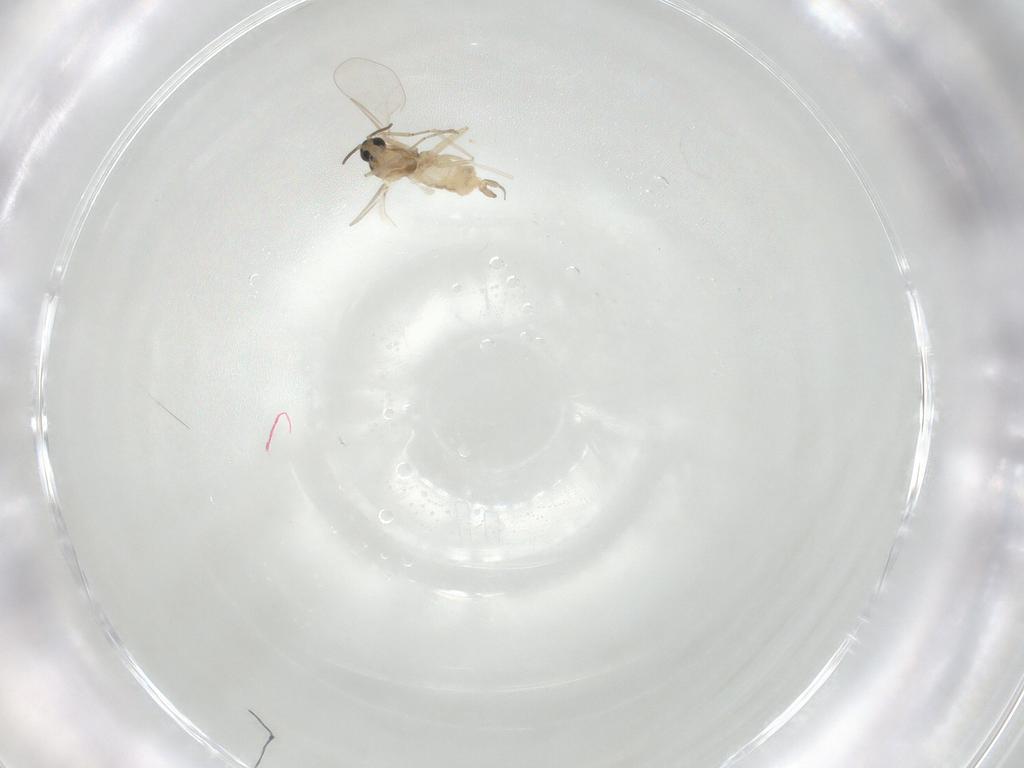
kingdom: Animalia
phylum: Arthropoda
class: Insecta
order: Diptera
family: Cecidomyiidae
